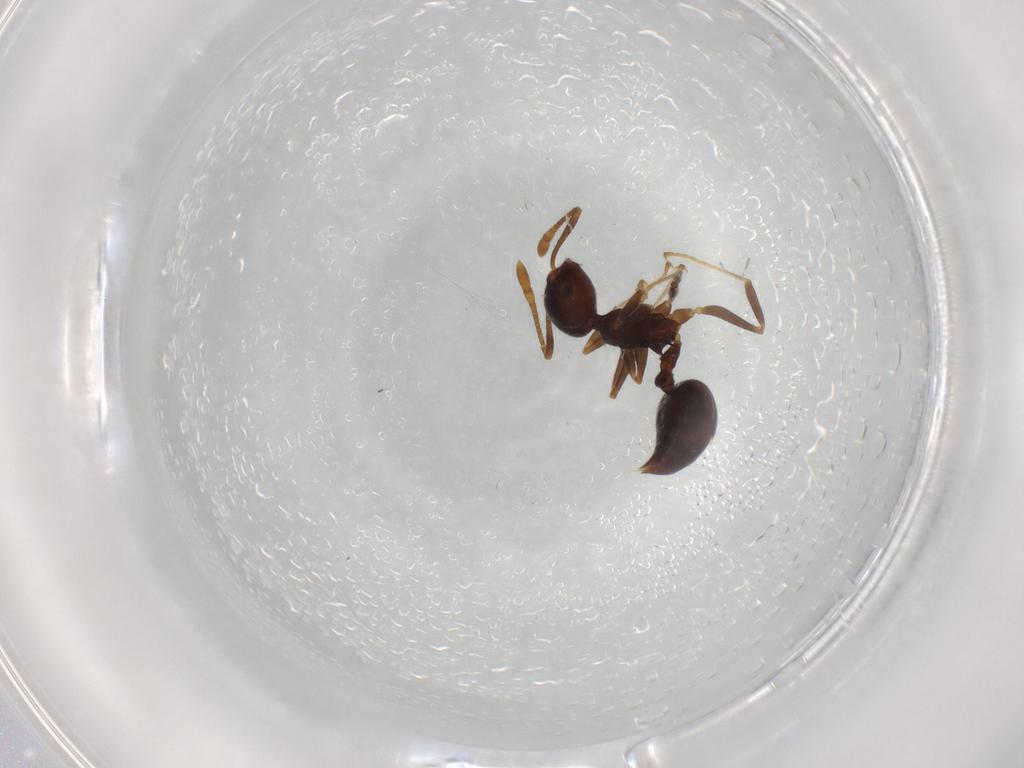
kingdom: Animalia
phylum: Arthropoda
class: Insecta
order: Hymenoptera
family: Formicidae
